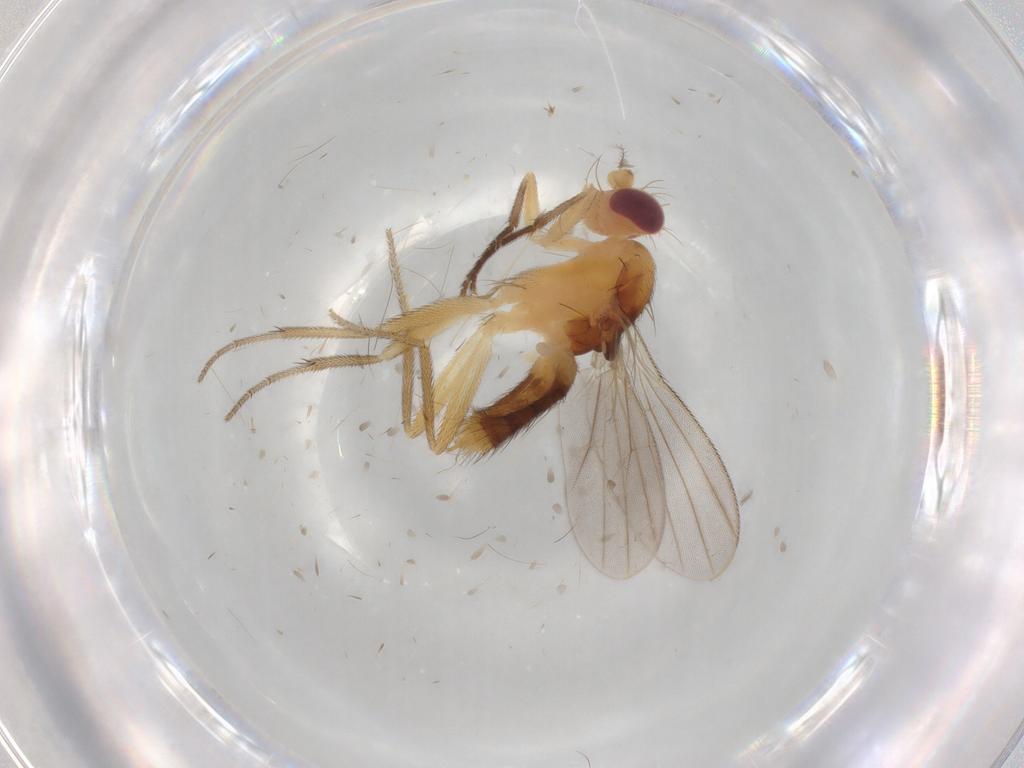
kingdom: Animalia
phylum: Arthropoda
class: Insecta
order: Diptera
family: Clusiidae
